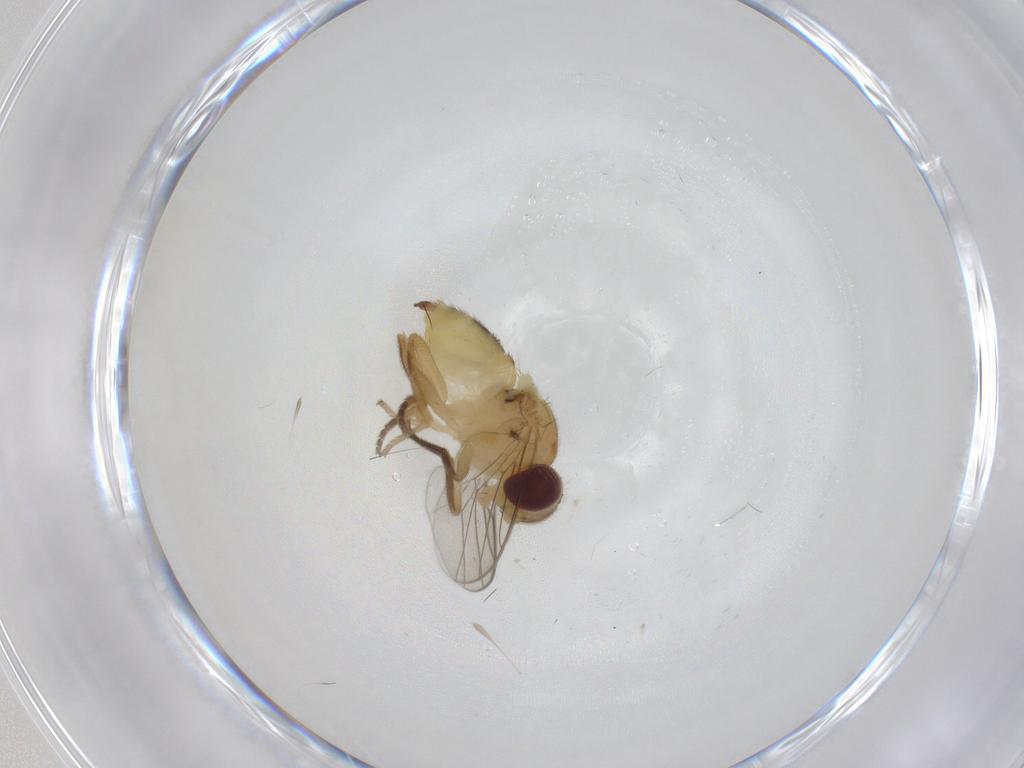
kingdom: Animalia
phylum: Arthropoda
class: Insecta
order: Diptera
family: Chloropidae
